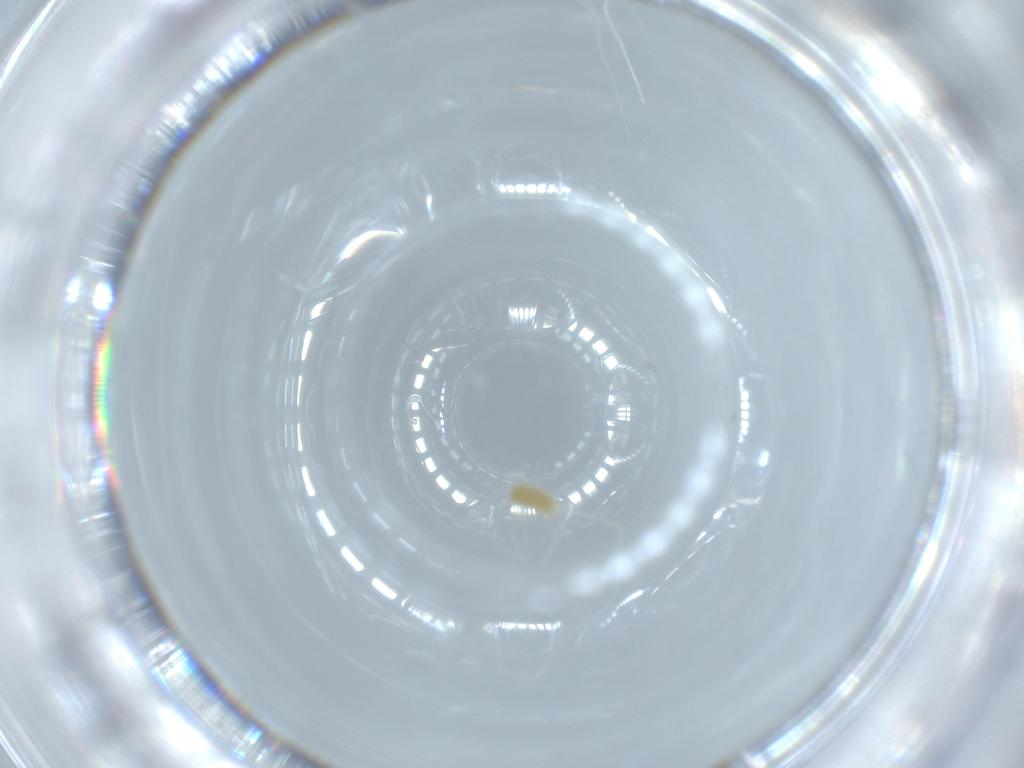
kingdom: Animalia
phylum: Arthropoda
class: Arachnida
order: Trombidiformes
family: Tetranychidae
